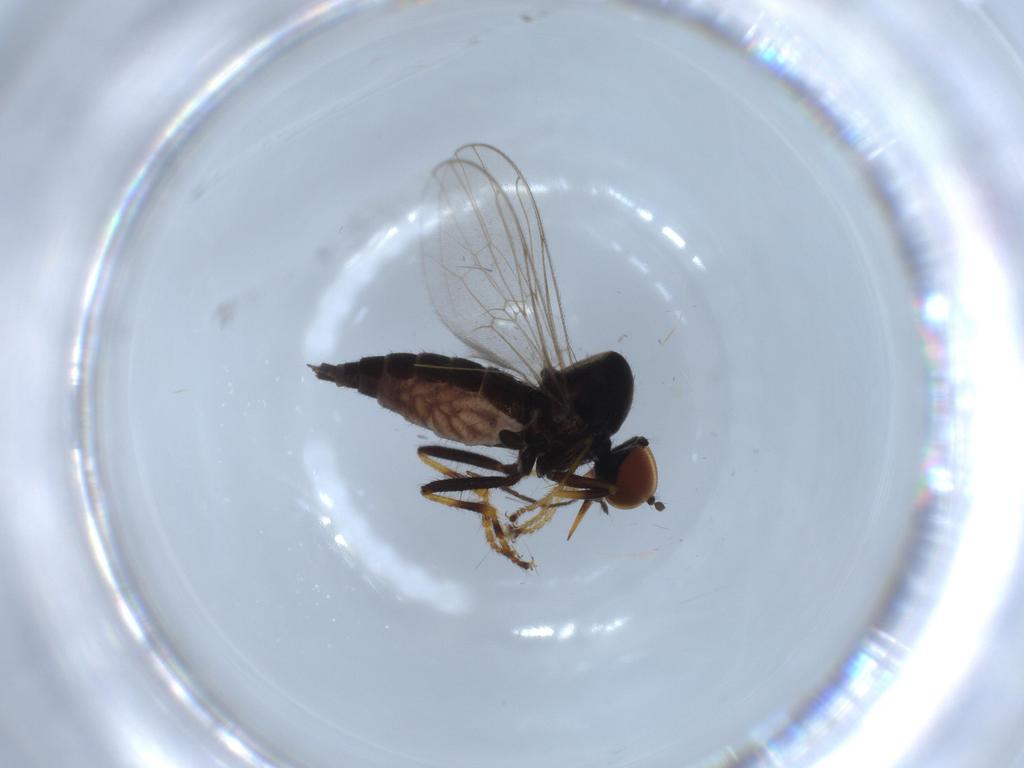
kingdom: Animalia
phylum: Arthropoda
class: Insecta
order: Diptera
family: Hybotidae
